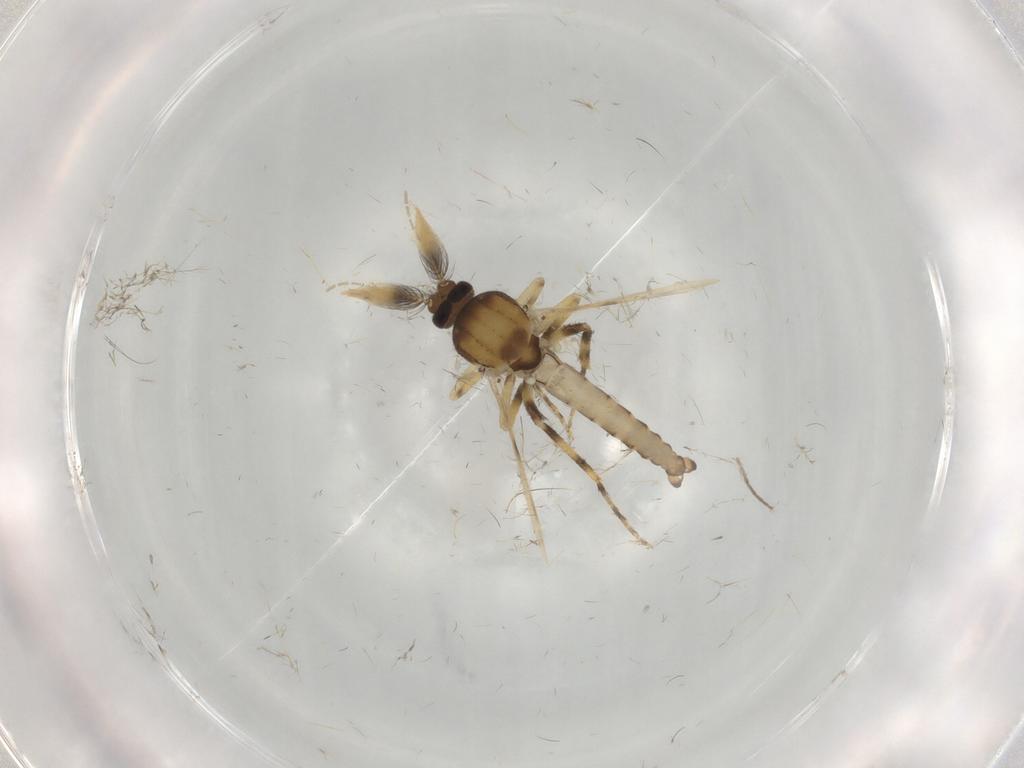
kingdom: Animalia
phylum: Arthropoda
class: Insecta
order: Diptera
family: Ceratopogonidae
